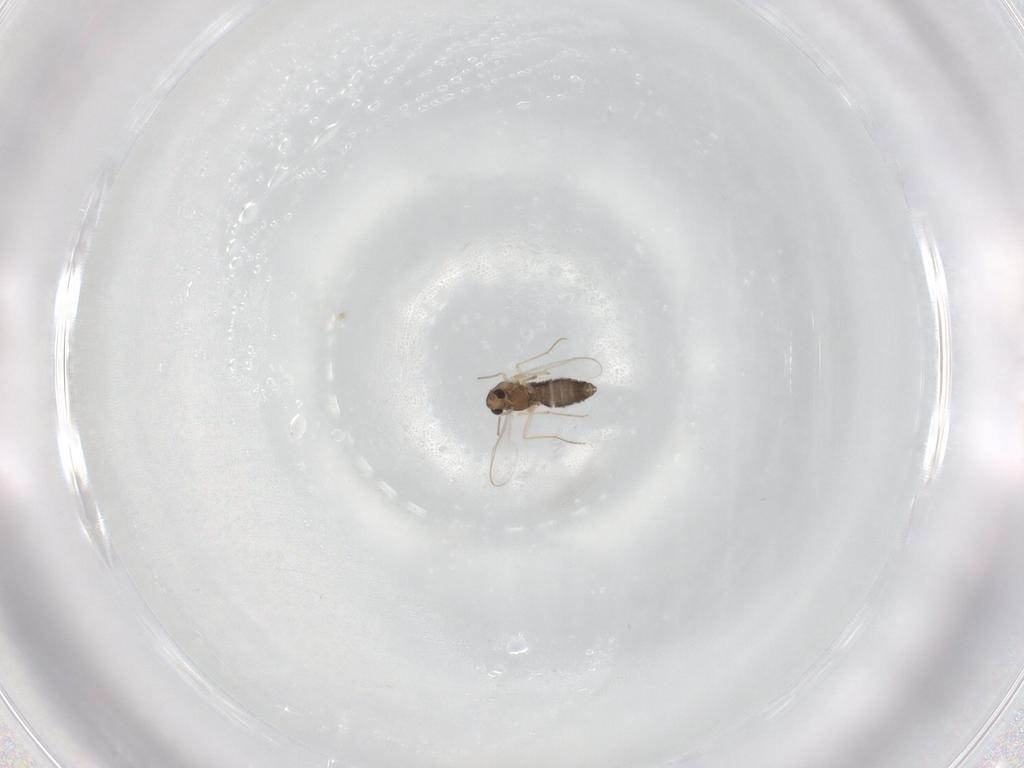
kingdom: Animalia
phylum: Arthropoda
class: Insecta
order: Diptera
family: Chironomidae
